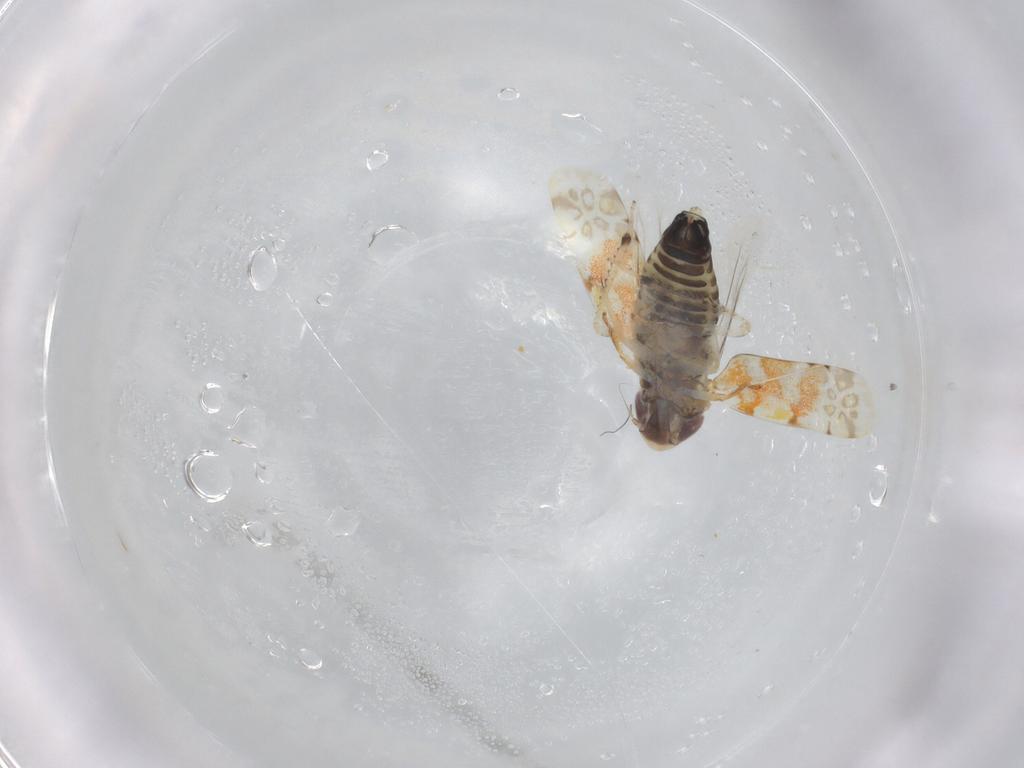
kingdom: Animalia
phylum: Arthropoda
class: Insecta
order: Hemiptera
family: Cicadellidae
